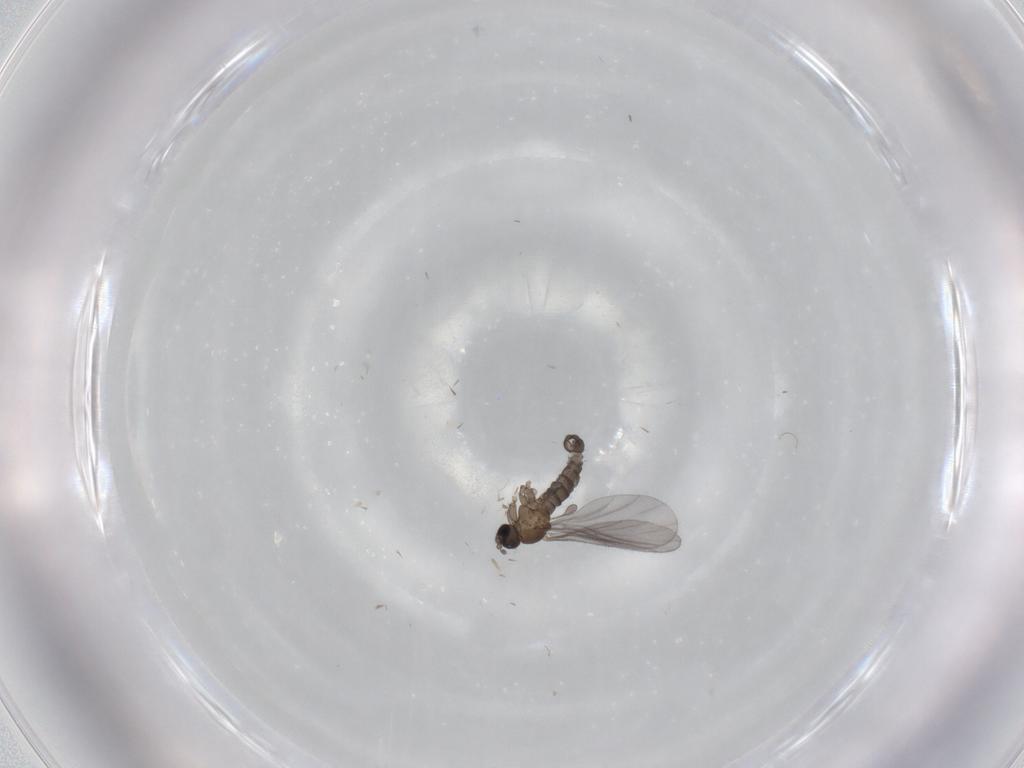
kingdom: Animalia
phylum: Arthropoda
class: Insecta
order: Diptera
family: Sciaridae
